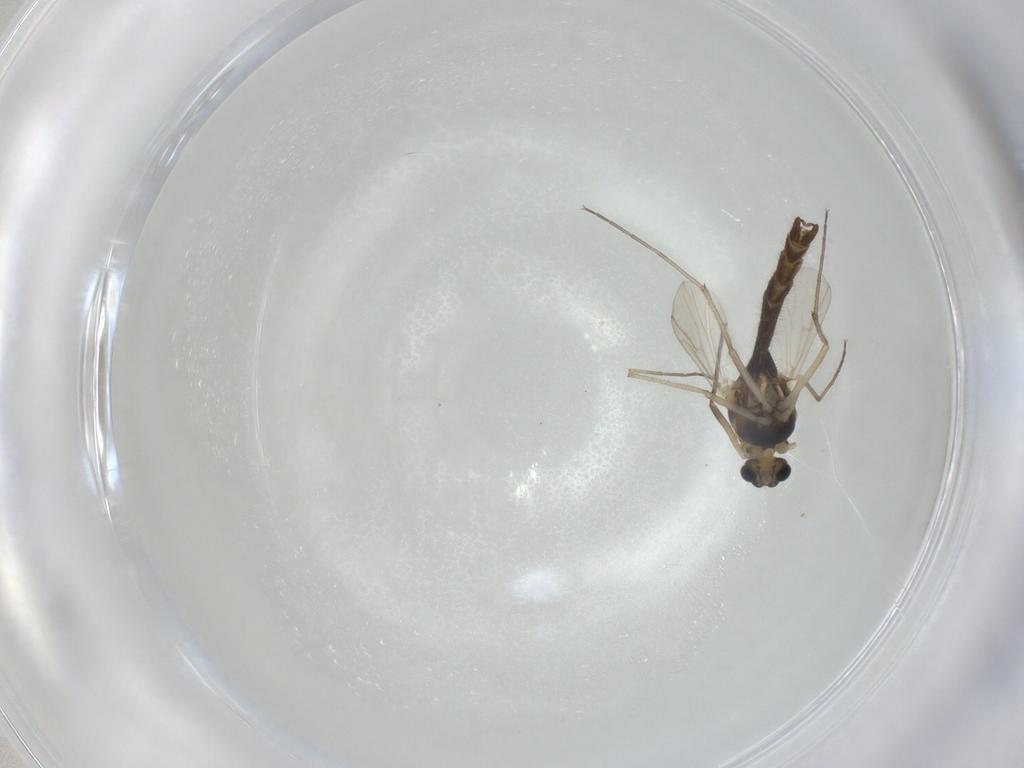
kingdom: Animalia
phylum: Arthropoda
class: Insecta
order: Diptera
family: Chironomidae
